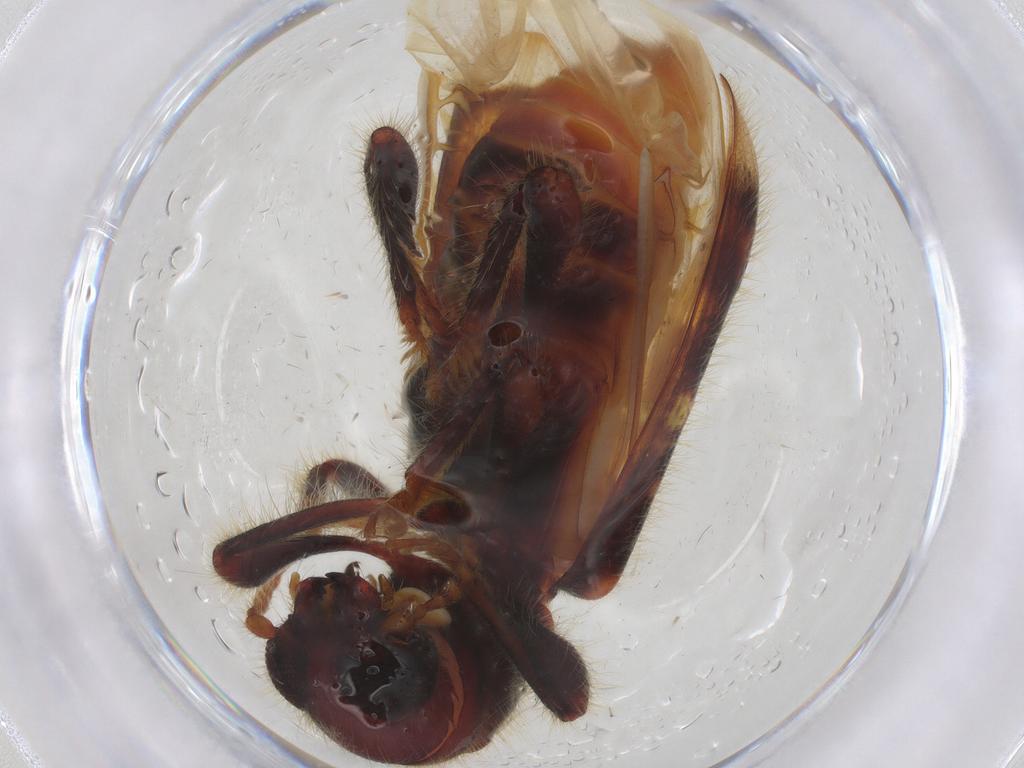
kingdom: Animalia
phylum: Arthropoda
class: Insecta
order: Coleoptera
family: Cleridae
